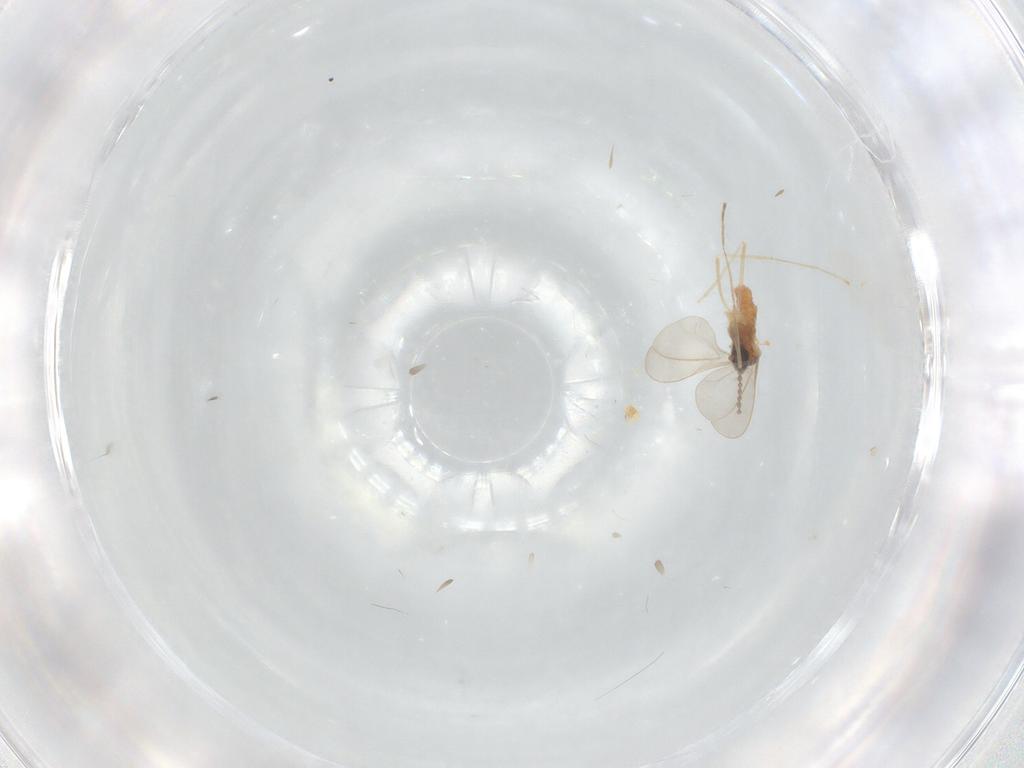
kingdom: Animalia
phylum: Arthropoda
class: Insecta
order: Diptera
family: Cecidomyiidae
